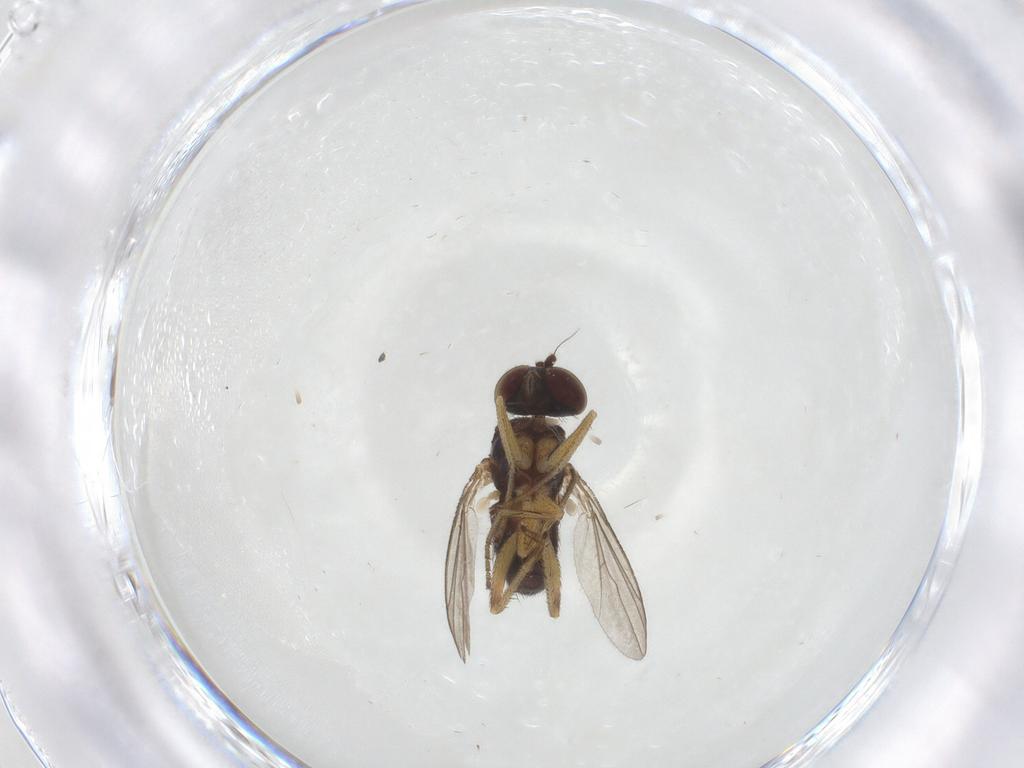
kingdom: Animalia
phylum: Arthropoda
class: Insecta
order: Diptera
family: Dolichopodidae
